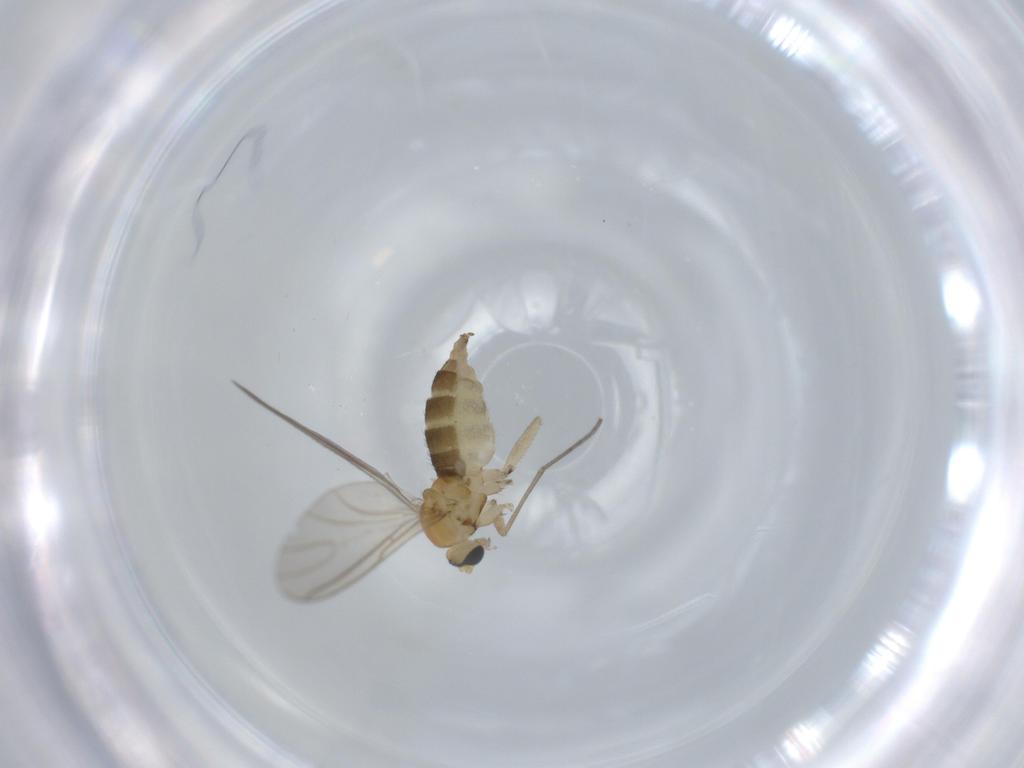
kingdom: Animalia
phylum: Arthropoda
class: Insecta
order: Diptera
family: Sciaridae
